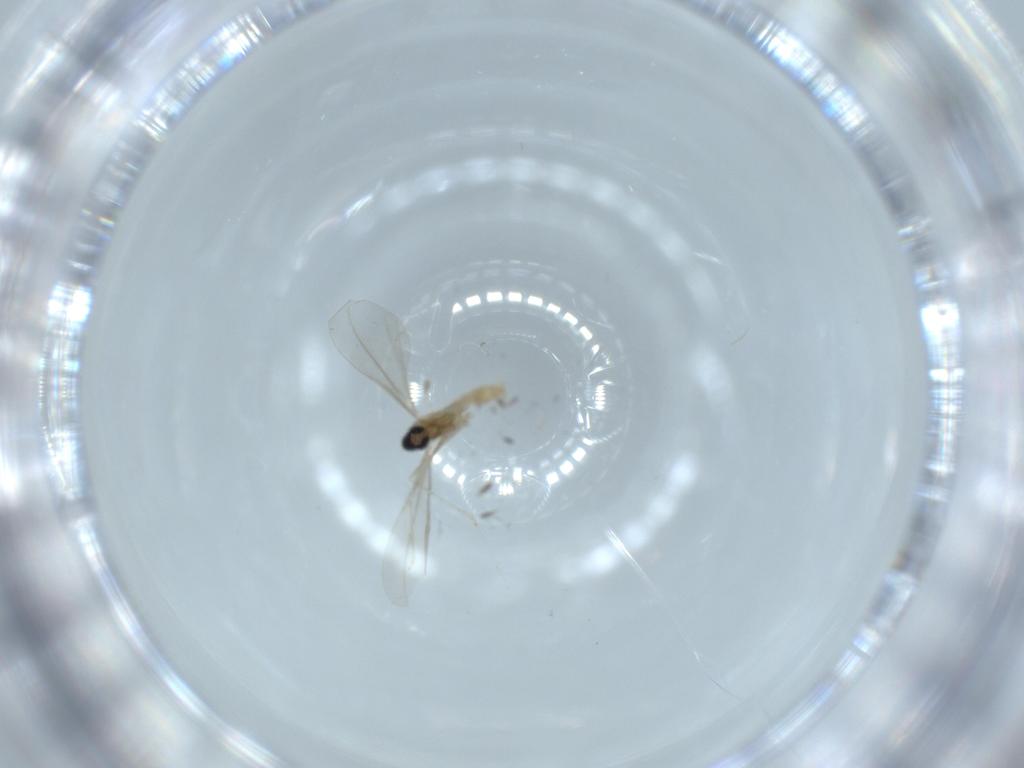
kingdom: Animalia
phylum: Arthropoda
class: Insecta
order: Diptera
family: Cecidomyiidae
